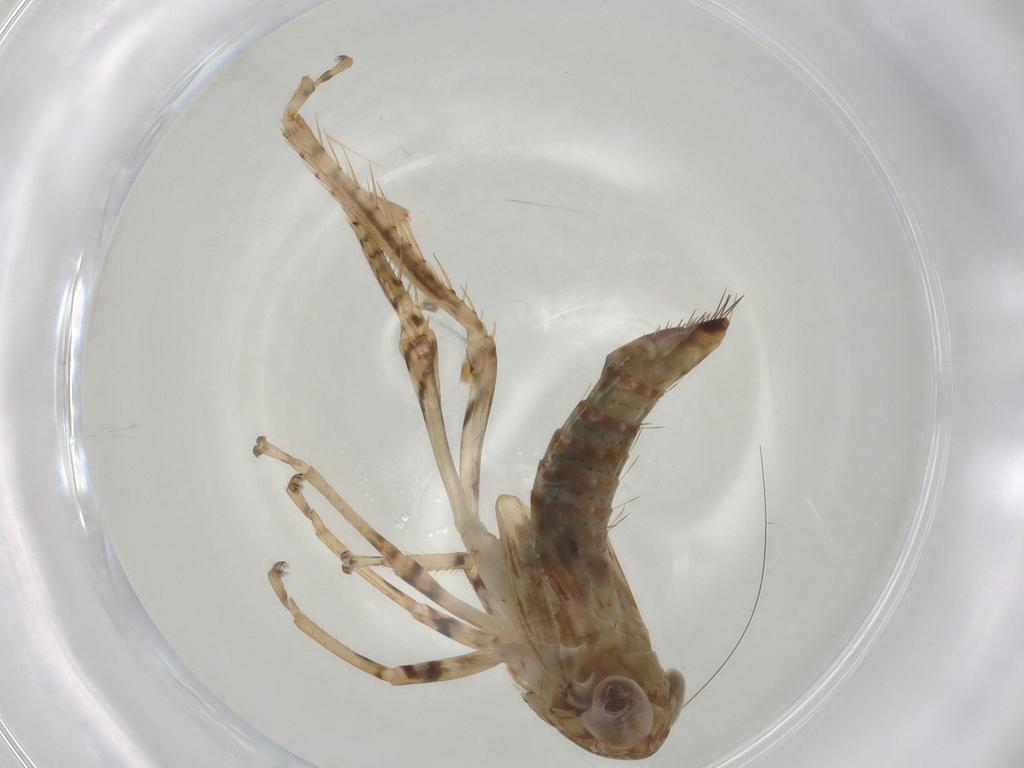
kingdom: Animalia
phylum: Arthropoda
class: Insecta
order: Hemiptera
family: Cicadellidae
